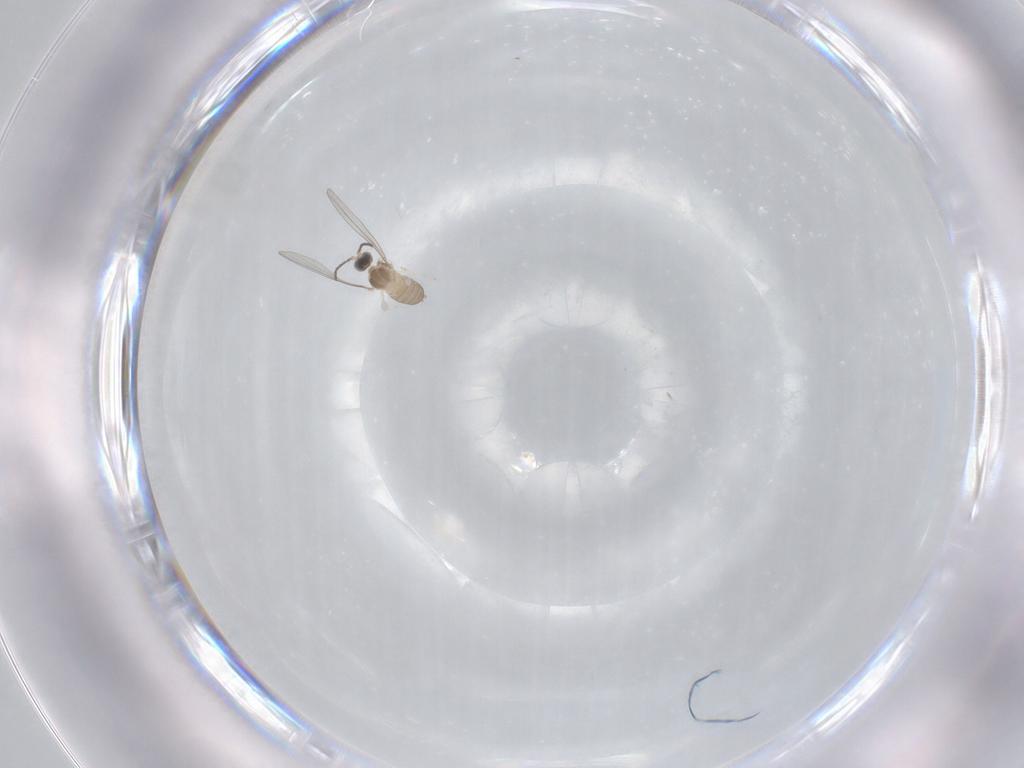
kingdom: Animalia
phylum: Arthropoda
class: Insecta
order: Diptera
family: Cecidomyiidae
